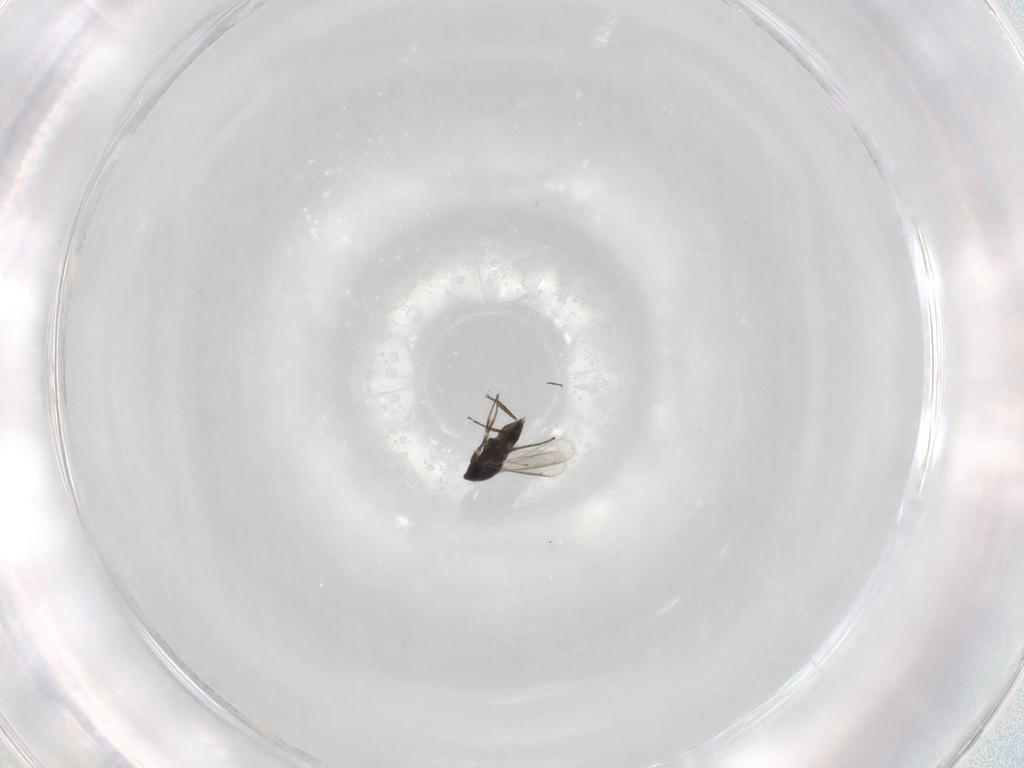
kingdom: Animalia
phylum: Arthropoda
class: Insecta
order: Hymenoptera
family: Eulophidae
